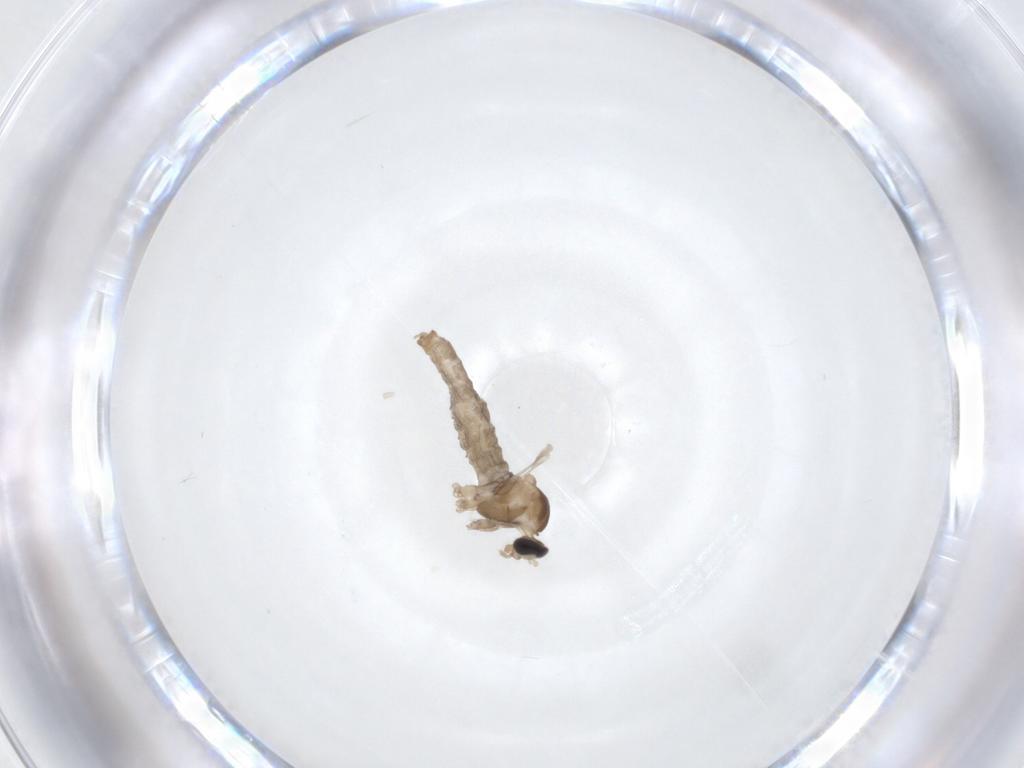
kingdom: Animalia
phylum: Arthropoda
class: Insecta
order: Diptera
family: Cecidomyiidae
